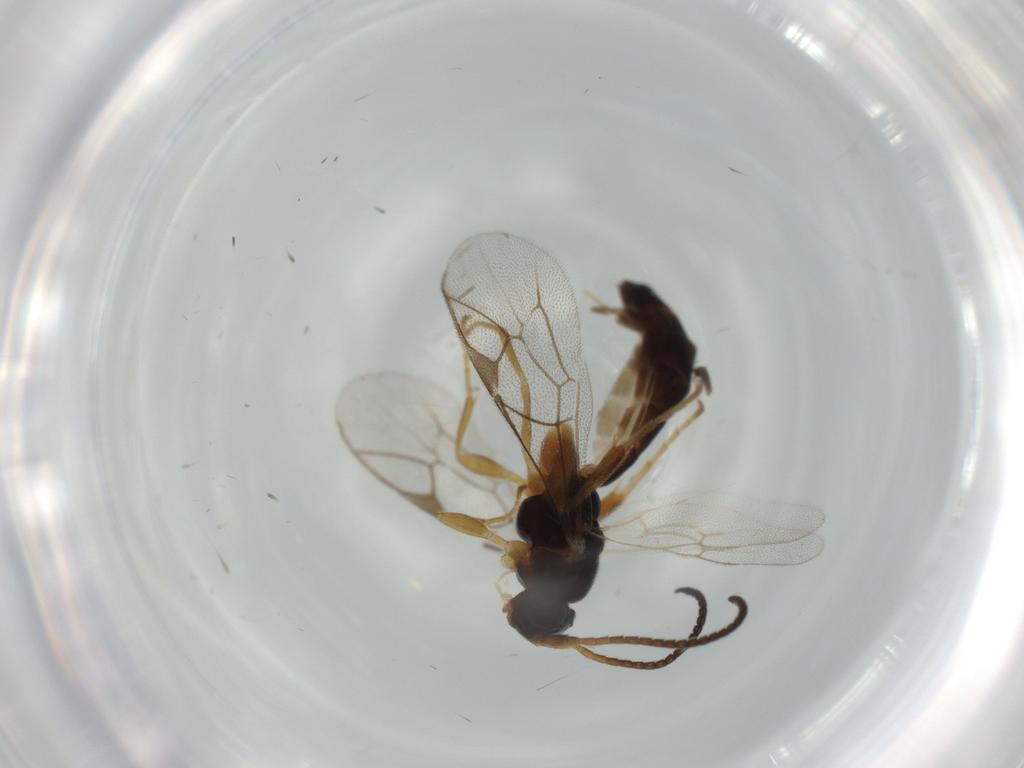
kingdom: Animalia
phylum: Arthropoda
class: Insecta
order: Hymenoptera
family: Ichneumonidae
